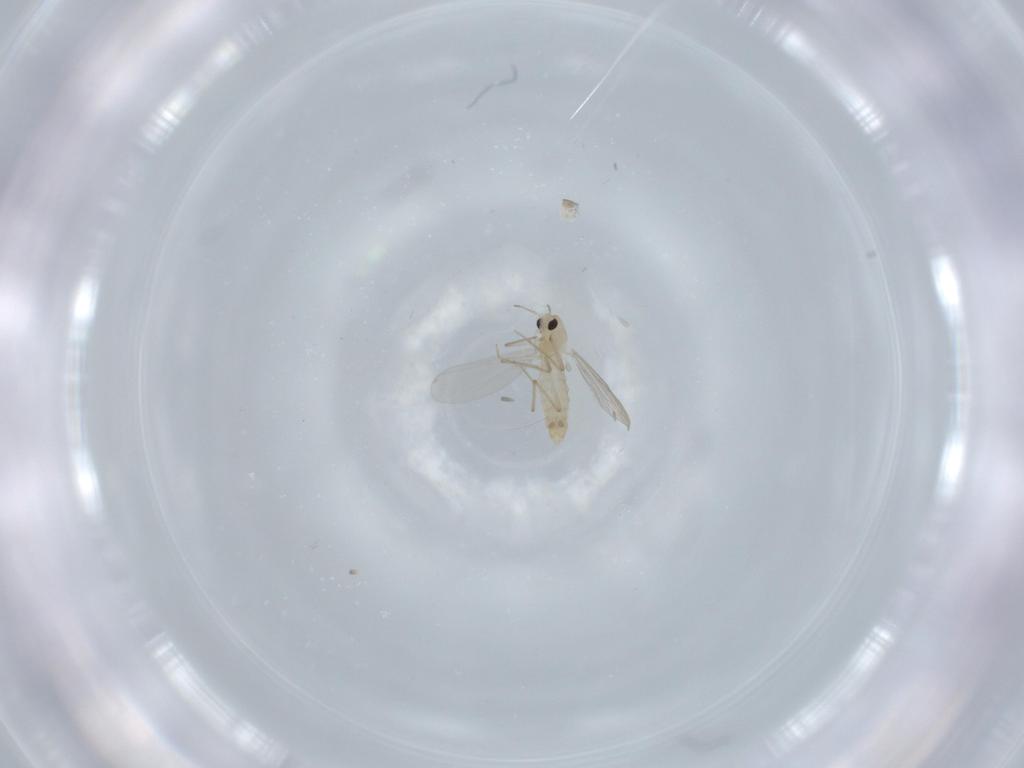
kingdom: Animalia
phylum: Arthropoda
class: Insecta
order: Diptera
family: Chironomidae
